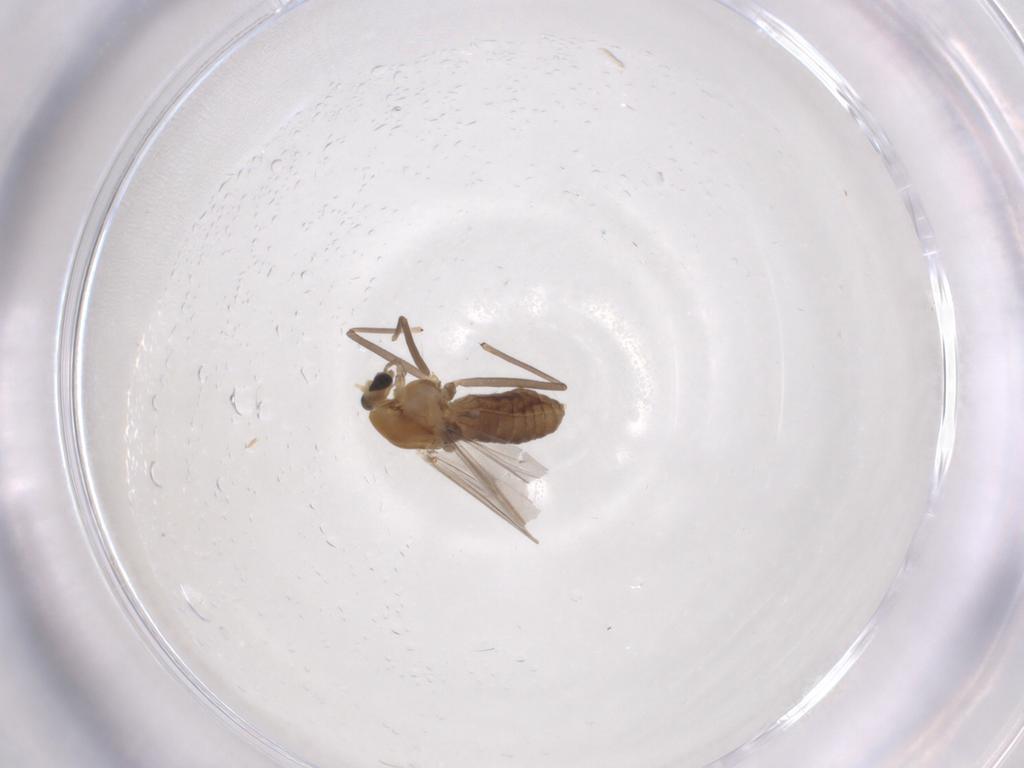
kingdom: Animalia
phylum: Arthropoda
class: Insecta
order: Diptera
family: Chironomidae
